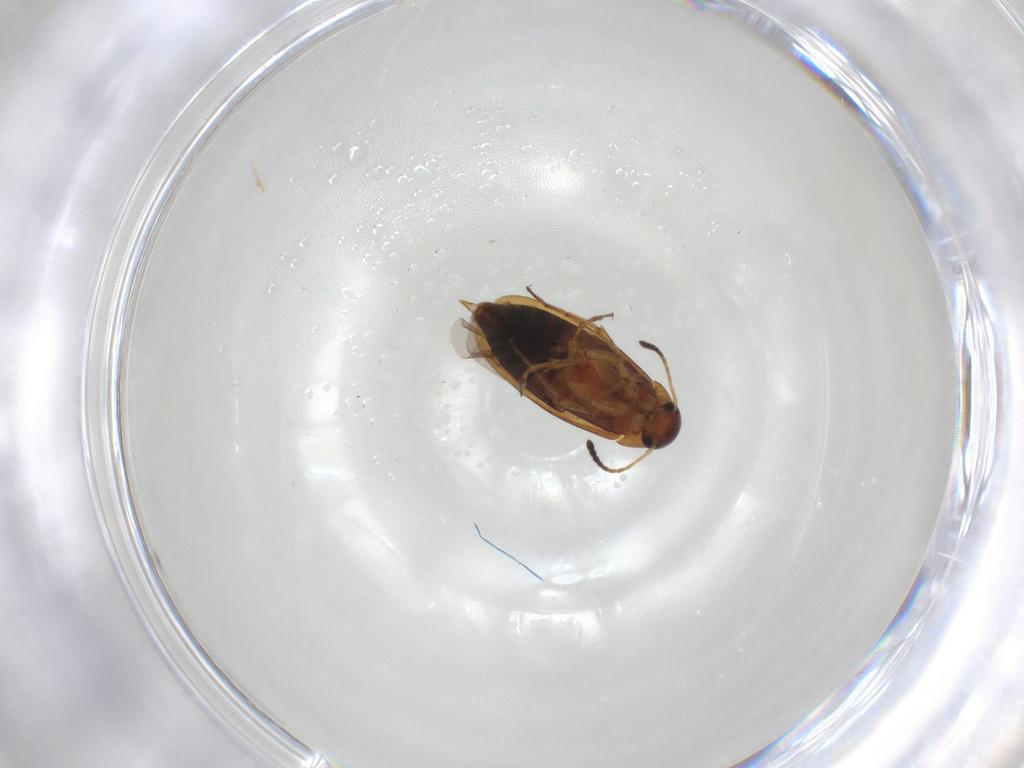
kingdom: Animalia
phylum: Arthropoda
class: Insecta
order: Coleoptera
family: Scraptiidae
